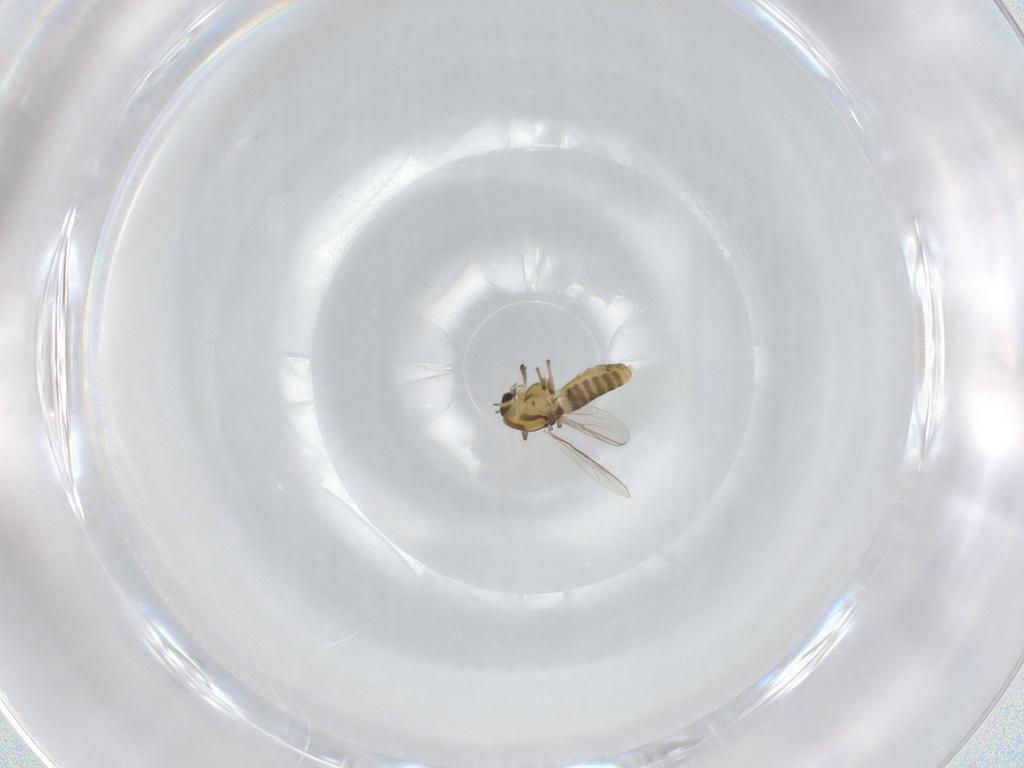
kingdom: Animalia
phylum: Arthropoda
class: Insecta
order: Diptera
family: Chironomidae
